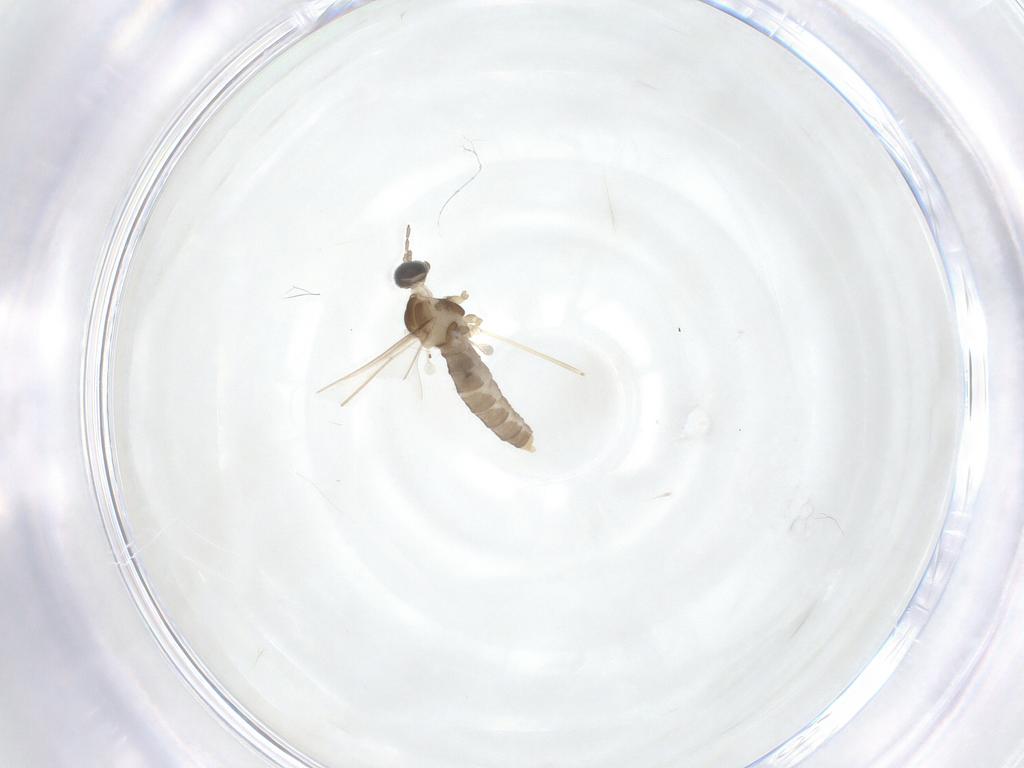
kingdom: Animalia
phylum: Arthropoda
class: Insecta
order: Diptera
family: Cecidomyiidae
